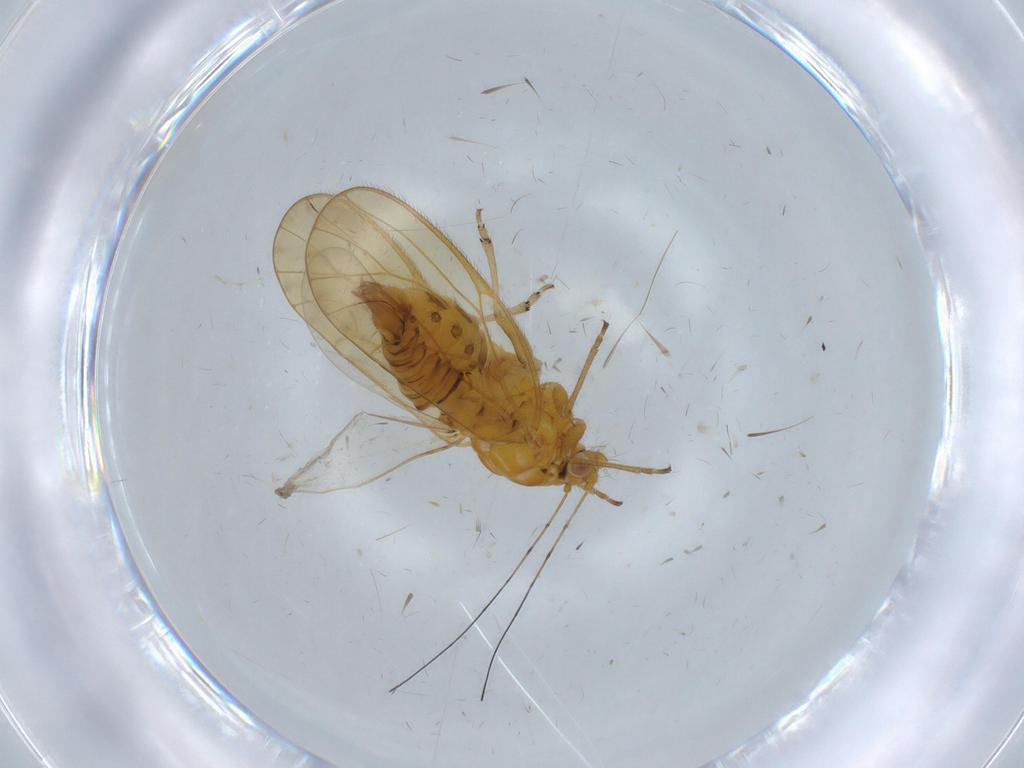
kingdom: Animalia
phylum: Arthropoda
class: Insecta
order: Hemiptera
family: Psyllidae
